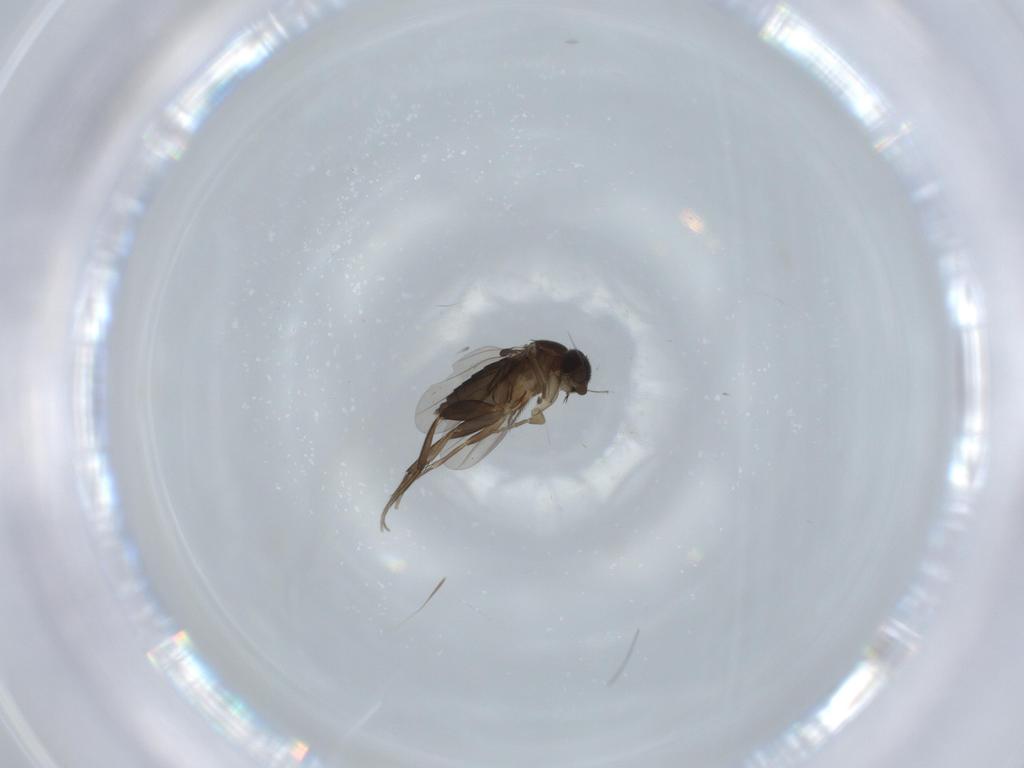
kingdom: Animalia
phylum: Arthropoda
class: Insecta
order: Diptera
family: Phoridae
